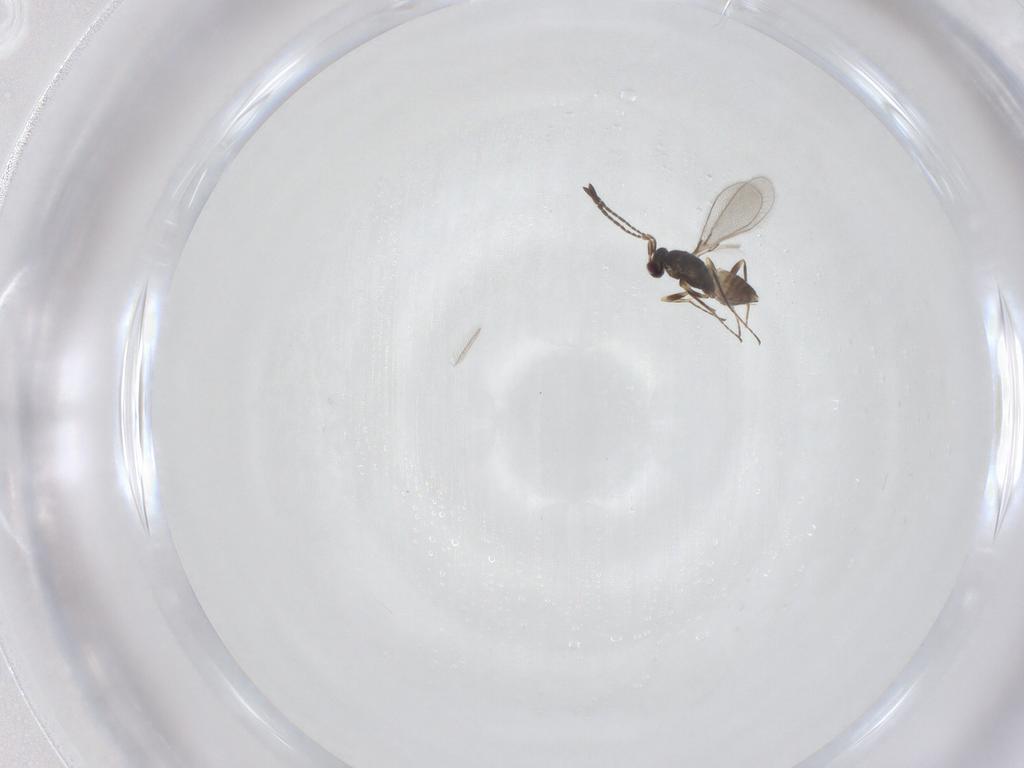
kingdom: Animalia
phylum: Arthropoda
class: Insecta
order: Hymenoptera
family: Mymaridae
